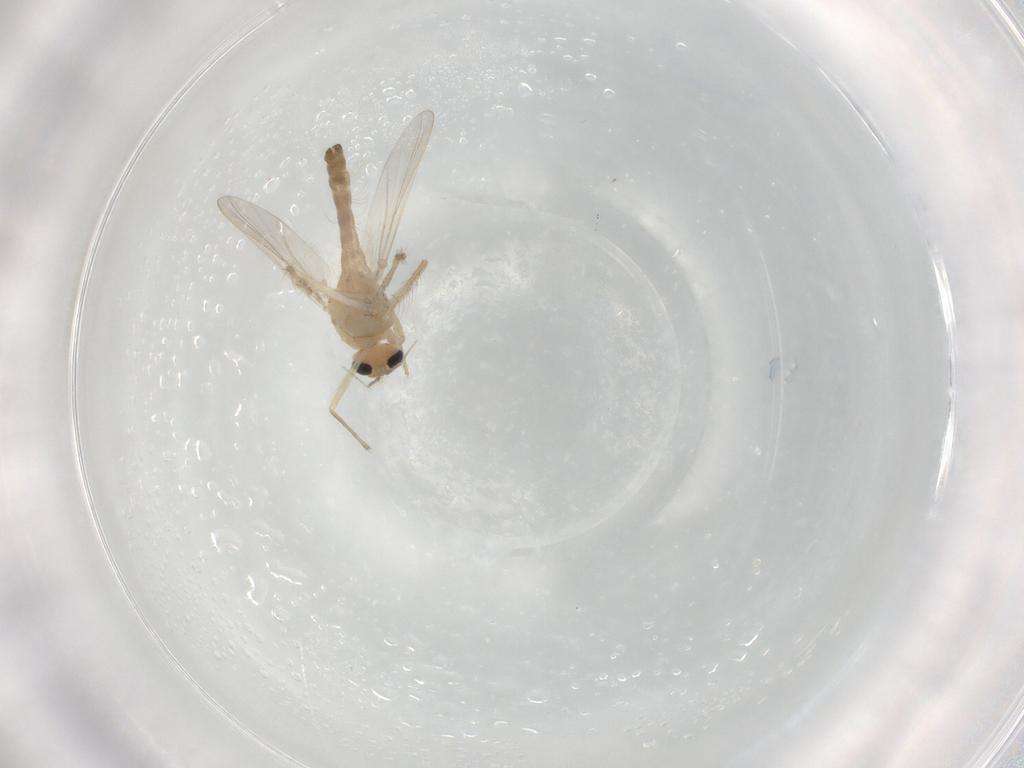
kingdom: Animalia
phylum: Arthropoda
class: Insecta
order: Diptera
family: Chironomidae
